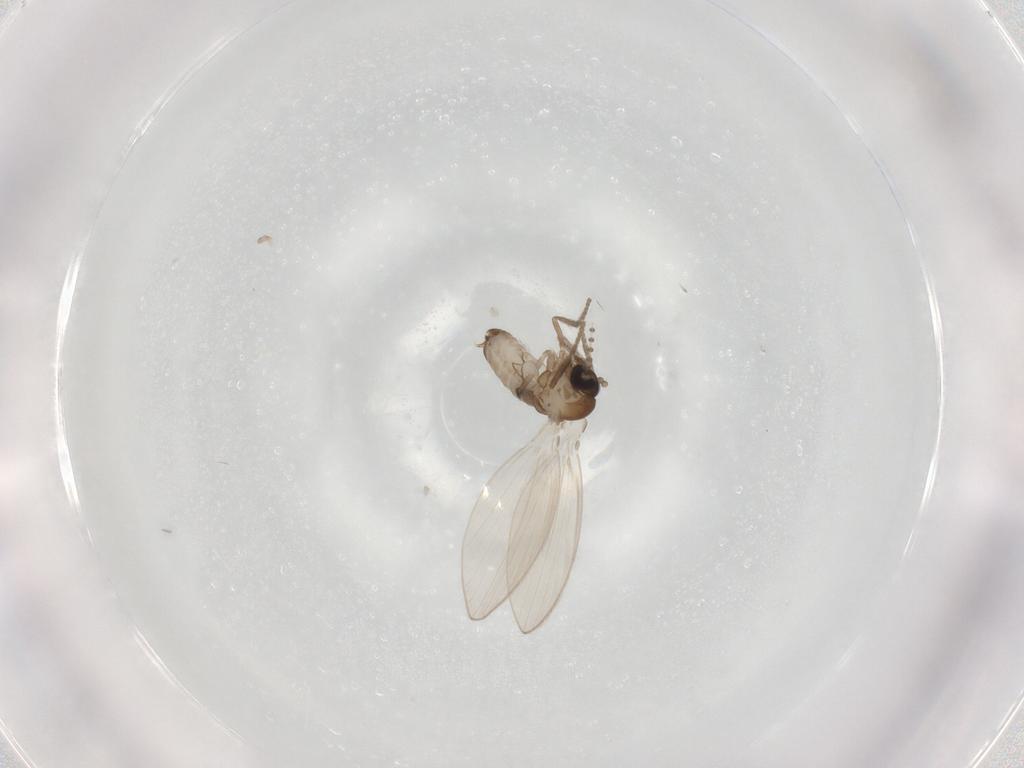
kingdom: Animalia
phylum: Arthropoda
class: Insecta
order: Diptera
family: Psychodidae
